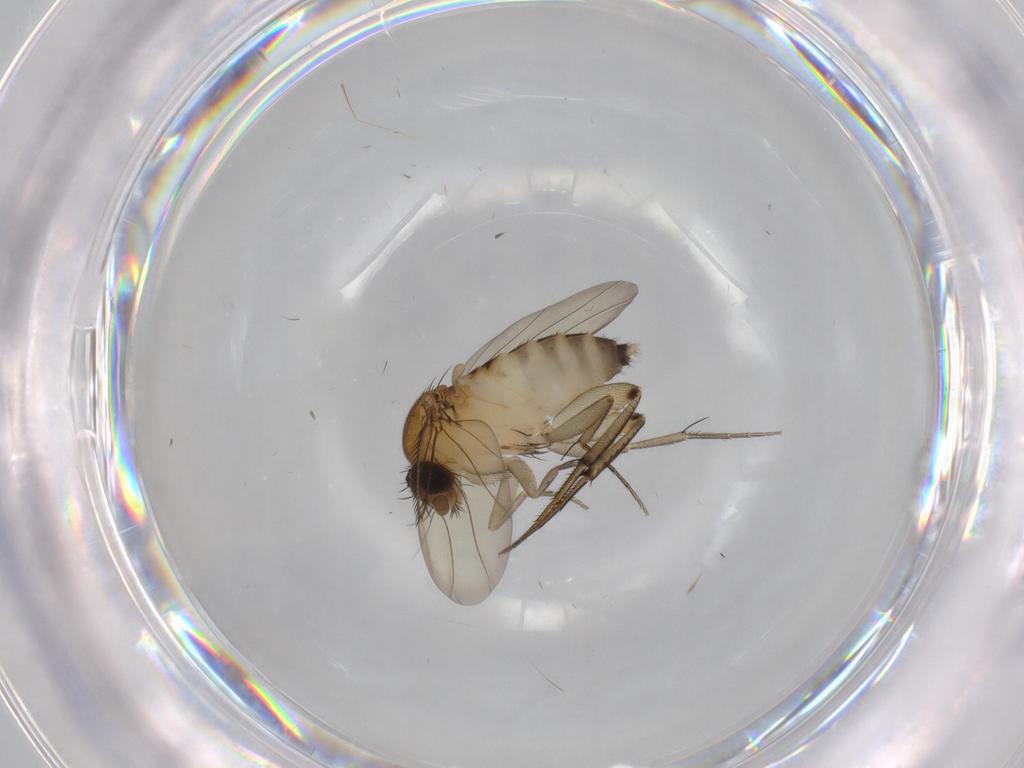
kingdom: Animalia
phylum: Arthropoda
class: Insecta
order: Diptera
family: Phoridae
